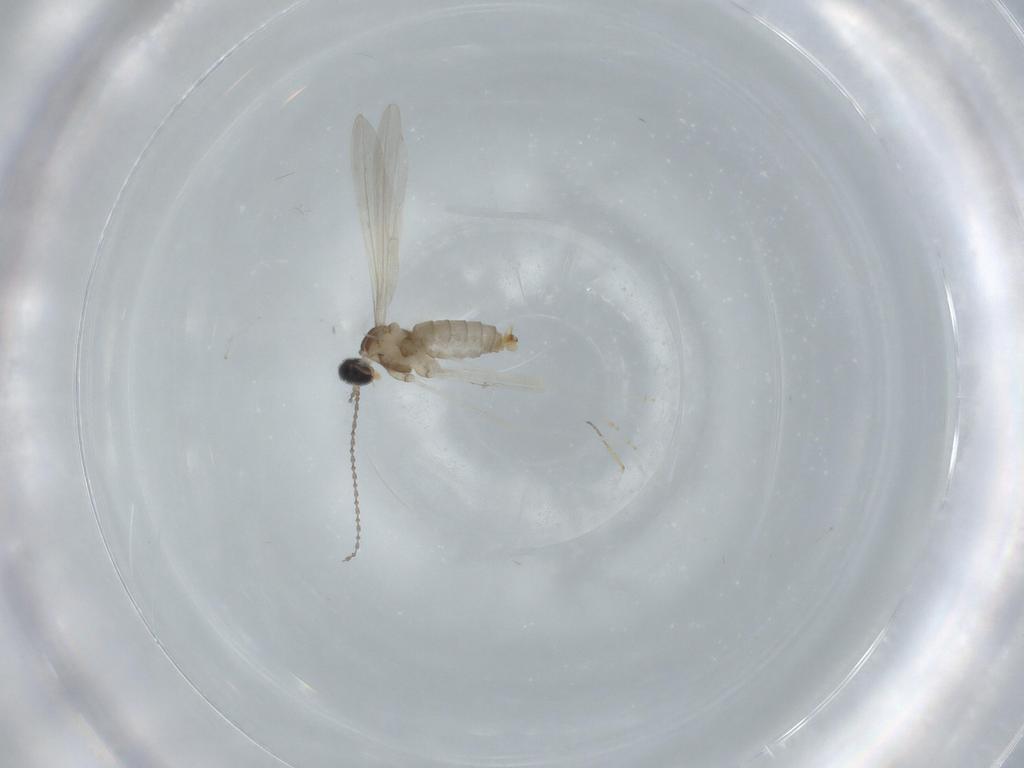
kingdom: Animalia
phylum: Arthropoda
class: Insecta
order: Diptera
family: Cecidomyiidae
